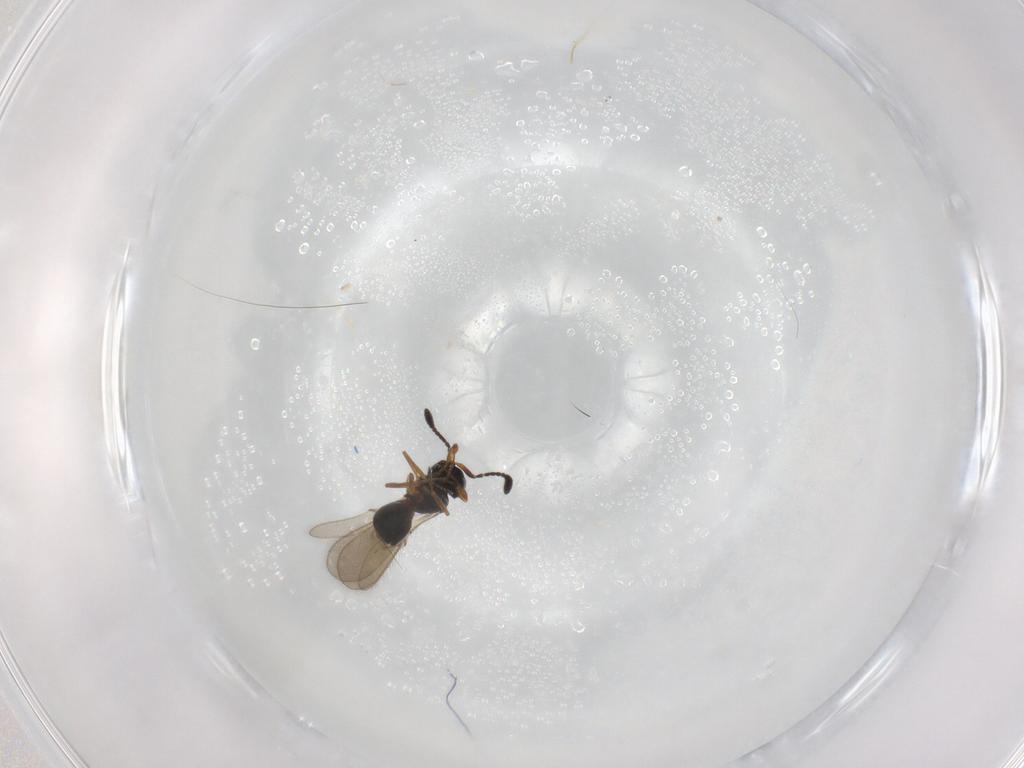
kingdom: Animalia
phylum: Arthropoda
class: Insecta
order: Hymenoptera
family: Scelionidae
